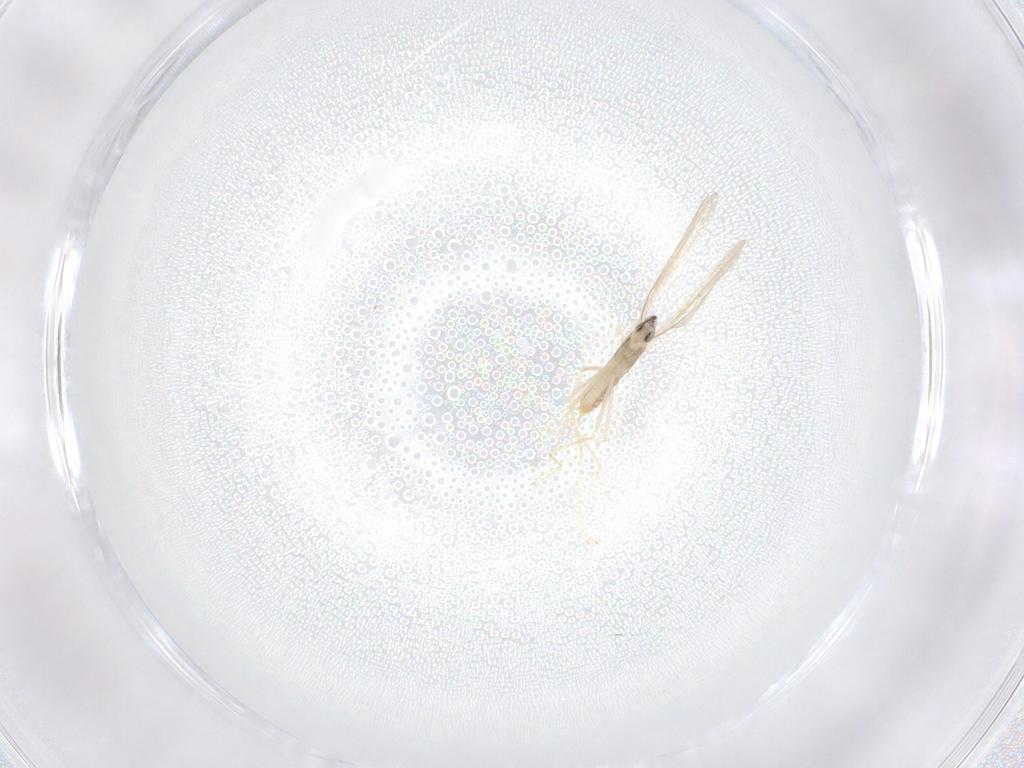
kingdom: Animalia
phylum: Arthropoda
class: Insecta
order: Diptera
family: Cecidomyiidae
